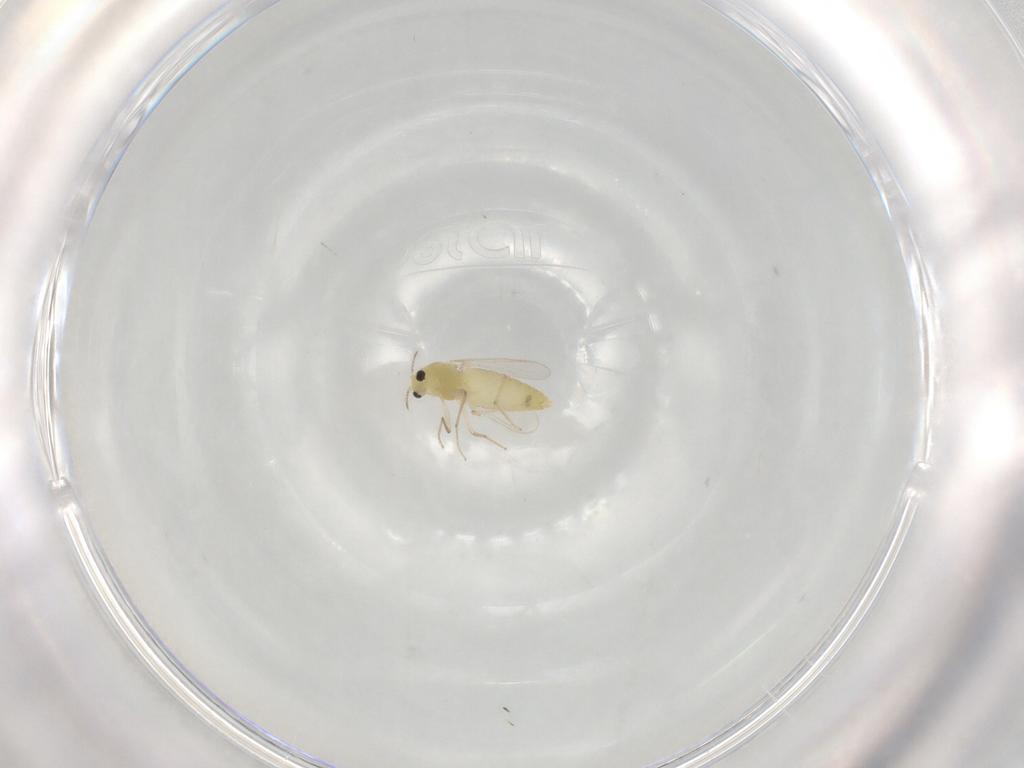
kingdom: Animalia
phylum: Arthropoda
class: Insecta
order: Diptera
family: Chironomidae
